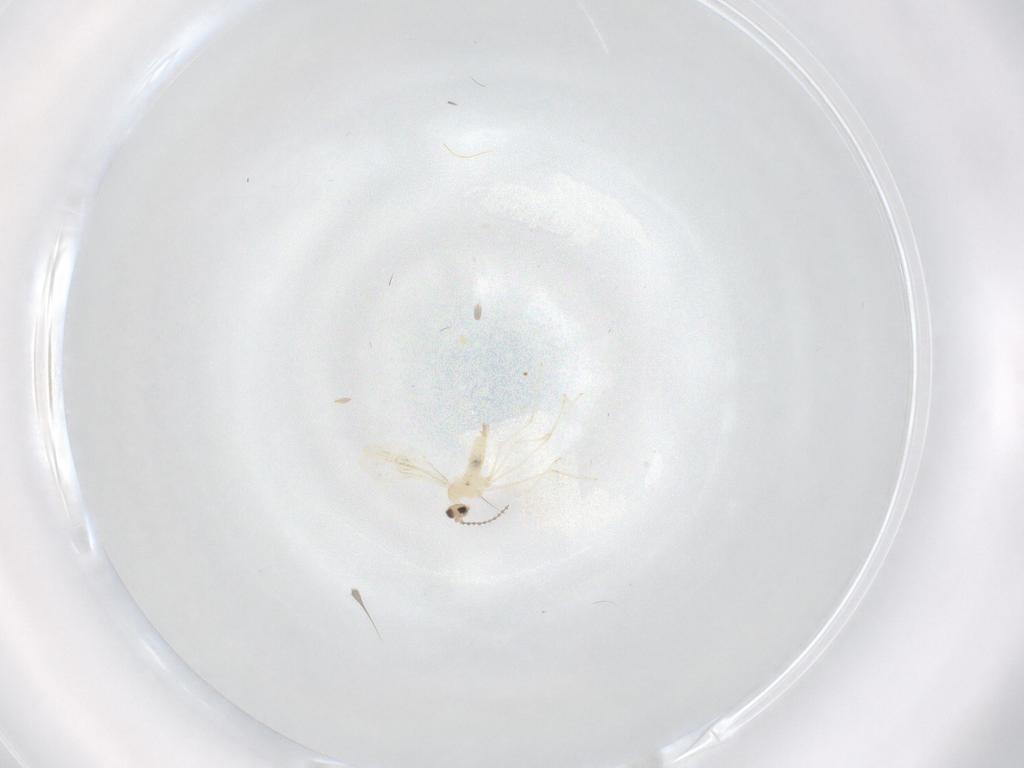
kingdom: Animalia
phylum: Arthropoda
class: Insecta
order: Diptera
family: Cecidomyiidae
